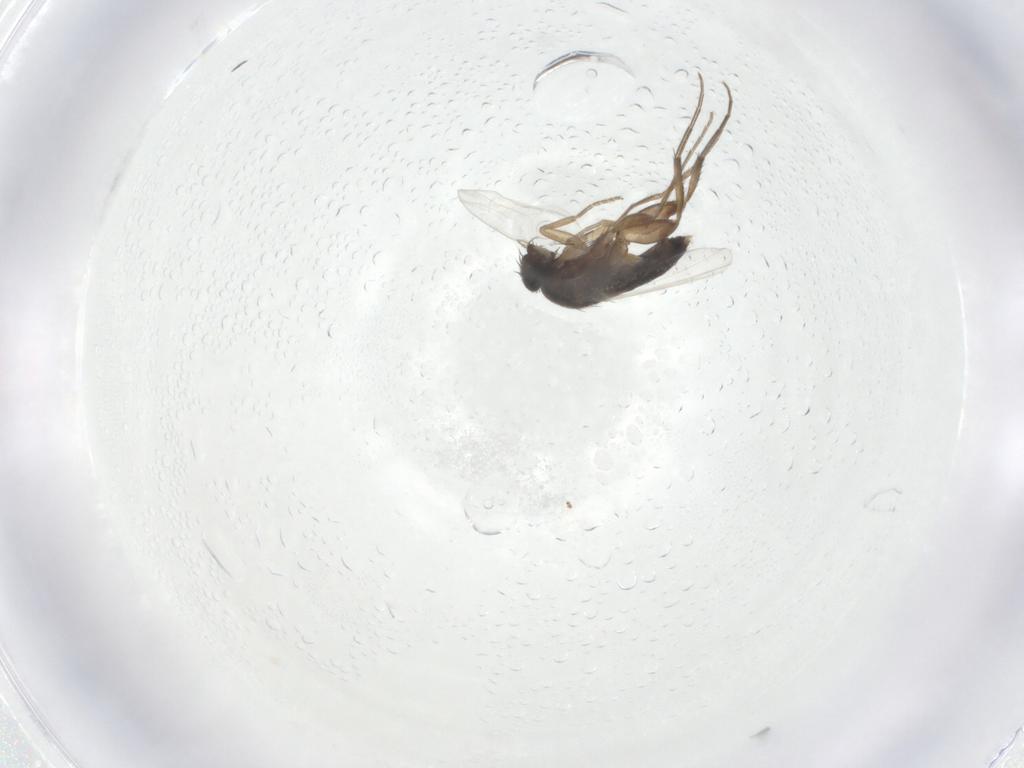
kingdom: Animalia
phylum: Arthropoda
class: Insecta
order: Diptera
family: Phoridae
